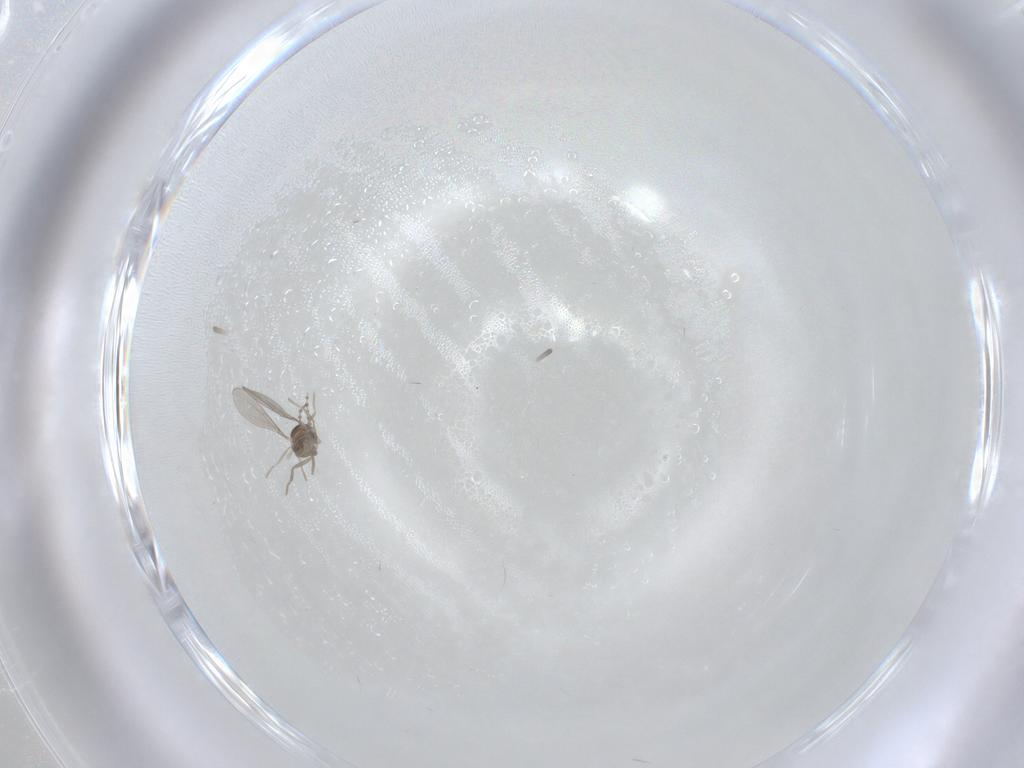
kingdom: Animalia
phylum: Arthropoda
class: Insecta
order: Diptera
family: Cecidomyiidae
